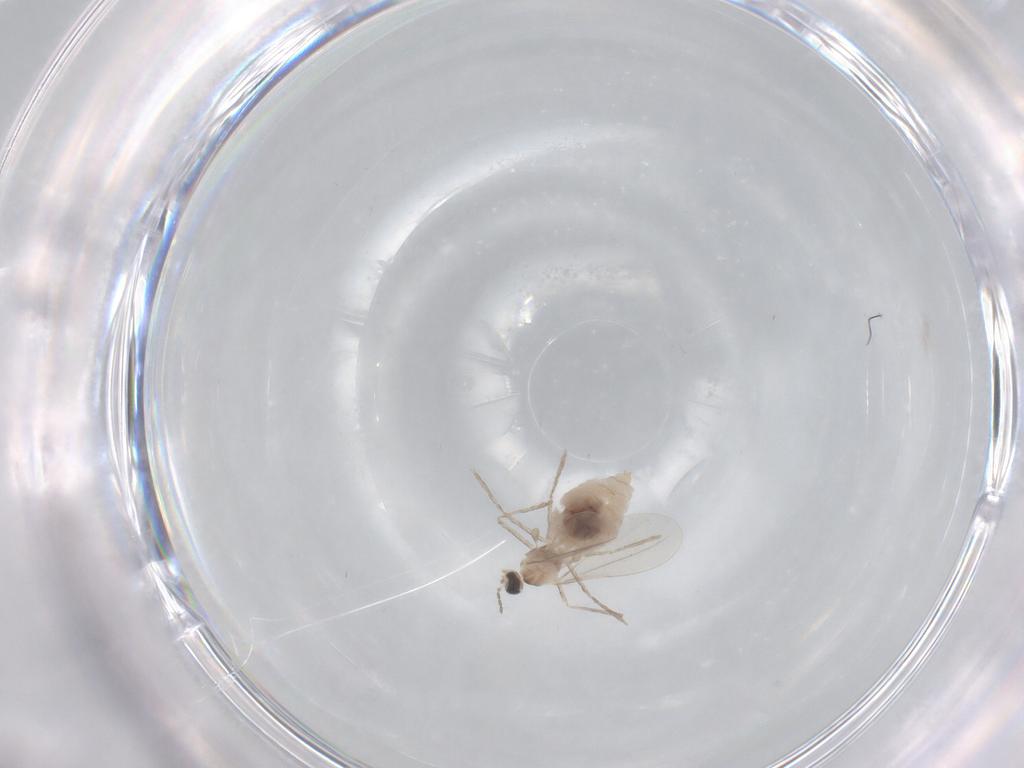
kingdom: Animalia
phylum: Arthropoda
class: Insecta
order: Diptera
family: Cecidomyiidae
